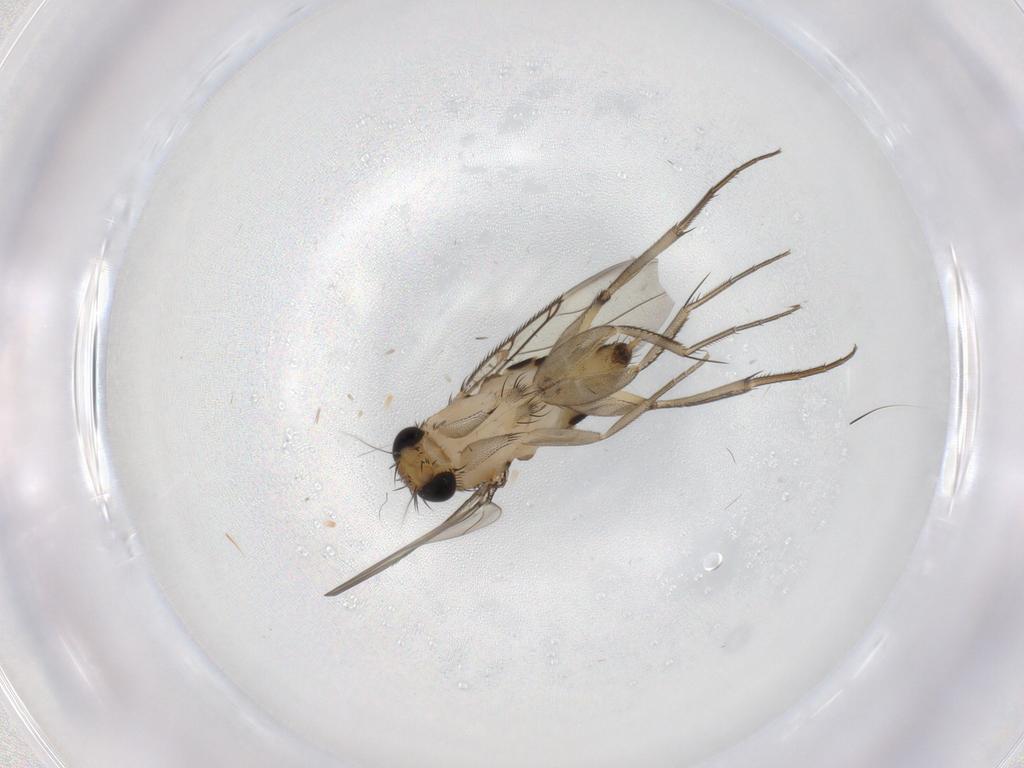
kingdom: Animalia
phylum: Arthropoda
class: Insecta
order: Diptera
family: Phoridae
